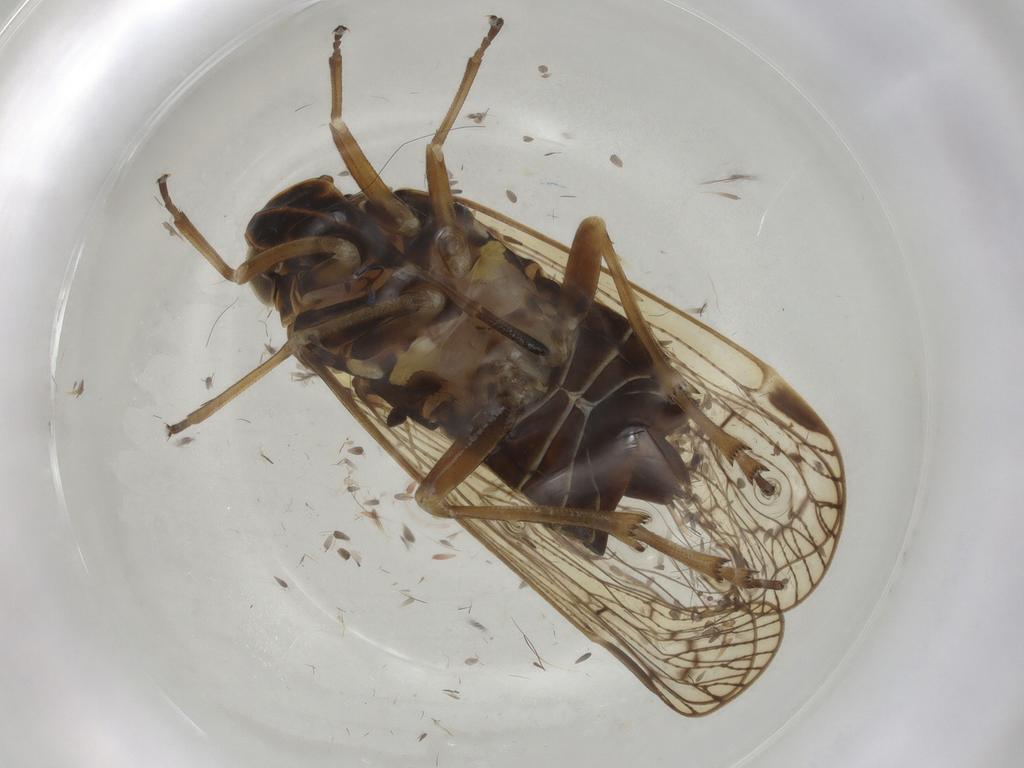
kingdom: Animalia
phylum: Arthropoda
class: Insecta
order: Hemiptera
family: Cixiidae
